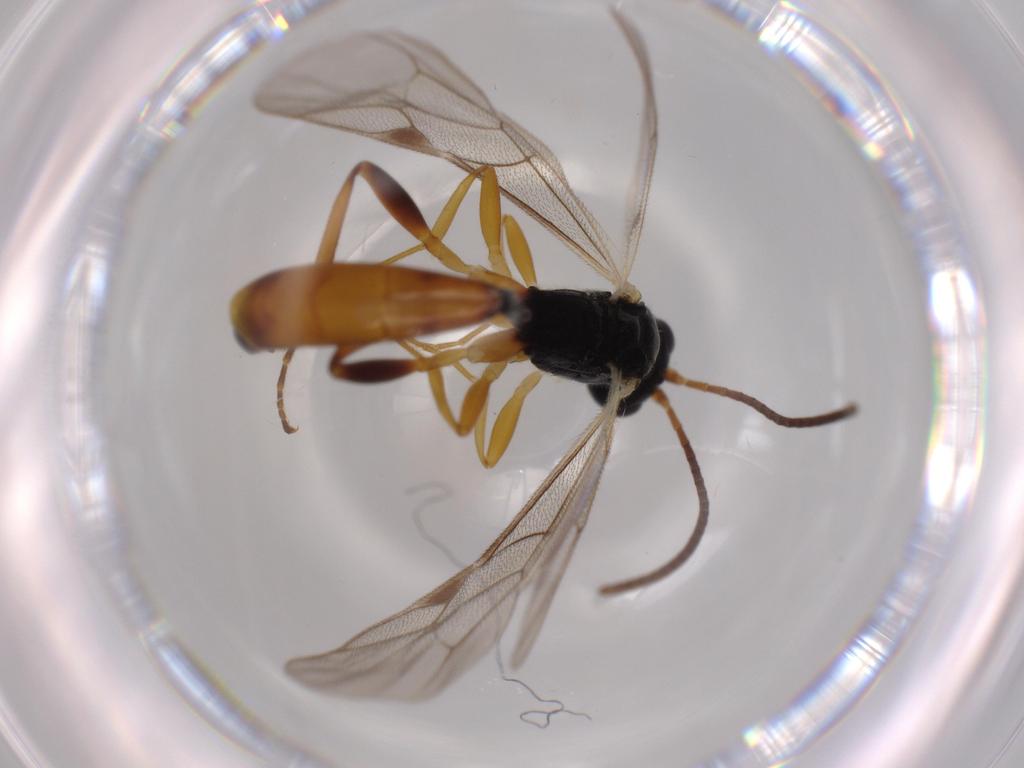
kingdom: Animalia
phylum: Arthropoda
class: Insecta
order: Hymenoptera
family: Ichneumonidae
